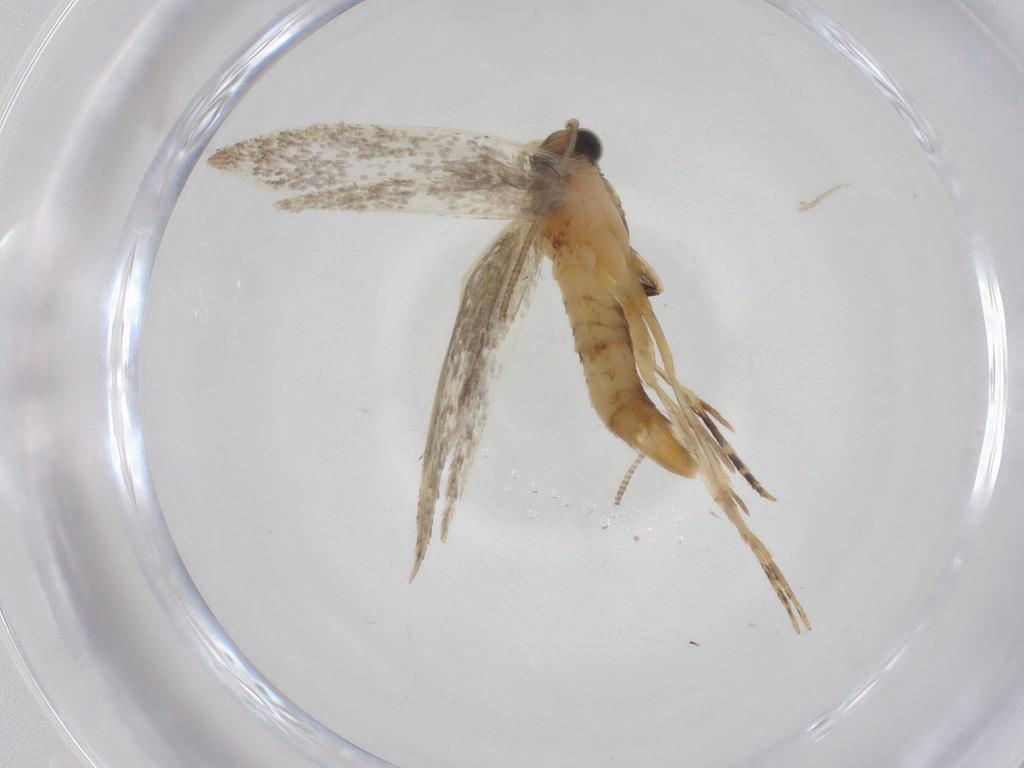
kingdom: Animalia
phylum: Arthropoda
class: Insecta
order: Lepidoptera
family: Tineidae
